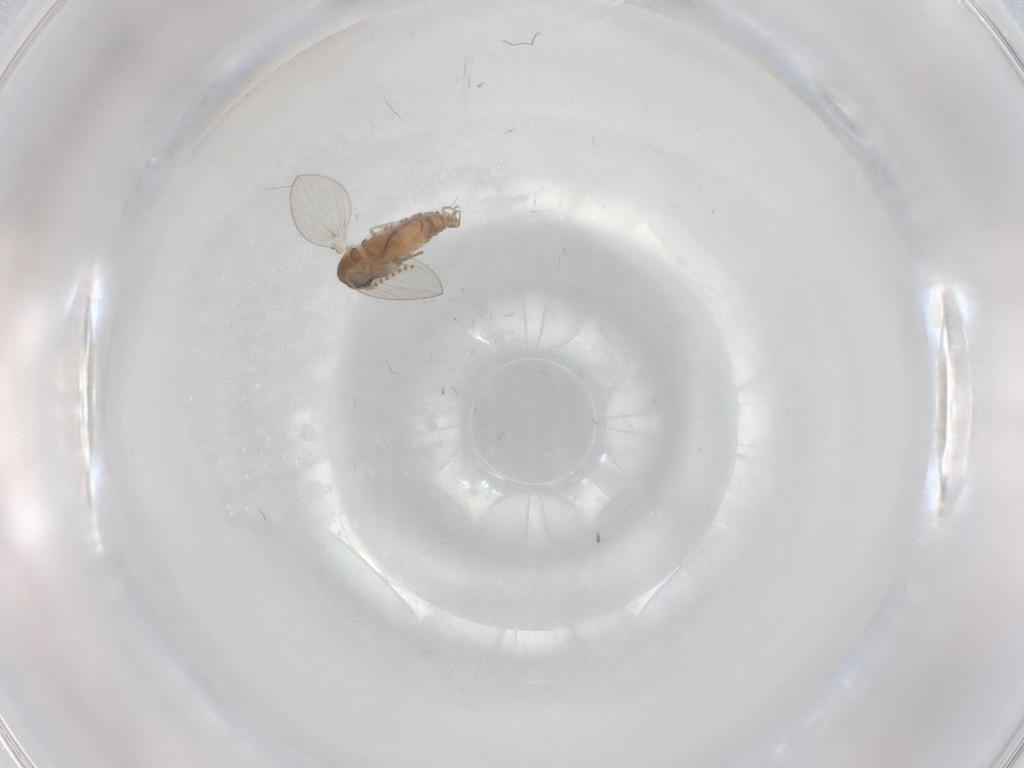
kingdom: Animalia
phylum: Arthropoda
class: Insecta
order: Diptera
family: Psychodidae
